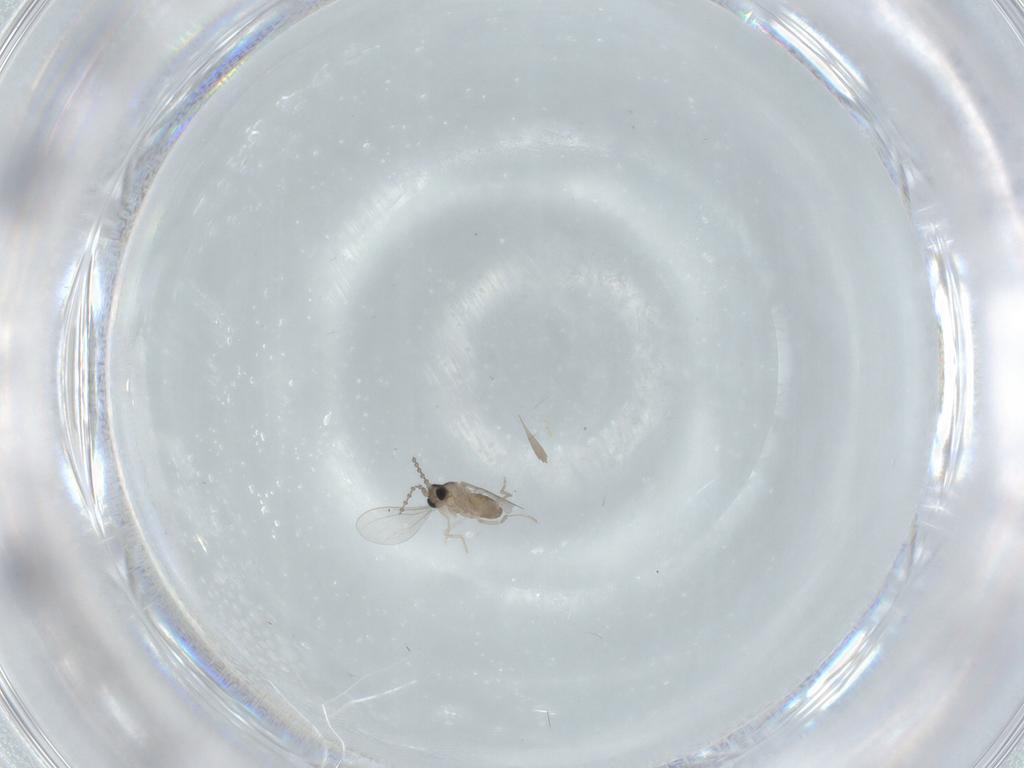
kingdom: Animalia
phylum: Arthropoda
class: Insecta
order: Diptera
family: Cecidomyiidae
